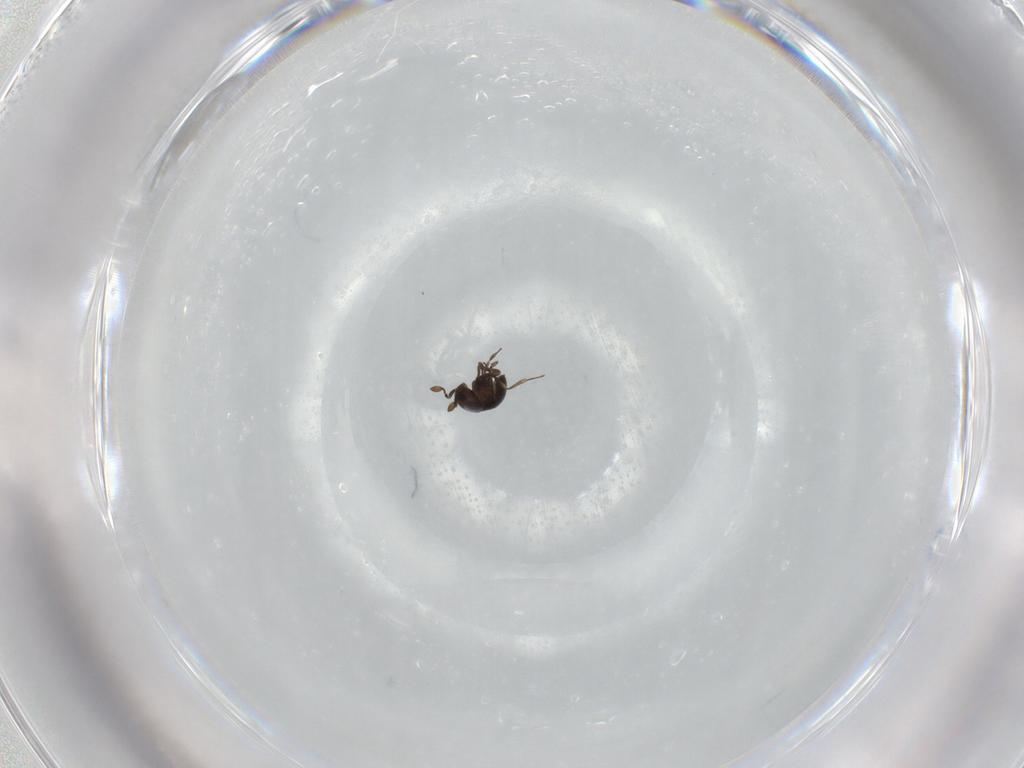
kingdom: Animalia
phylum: Arthropoda
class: Insecta
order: Hymenoptera
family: Scelionidae
